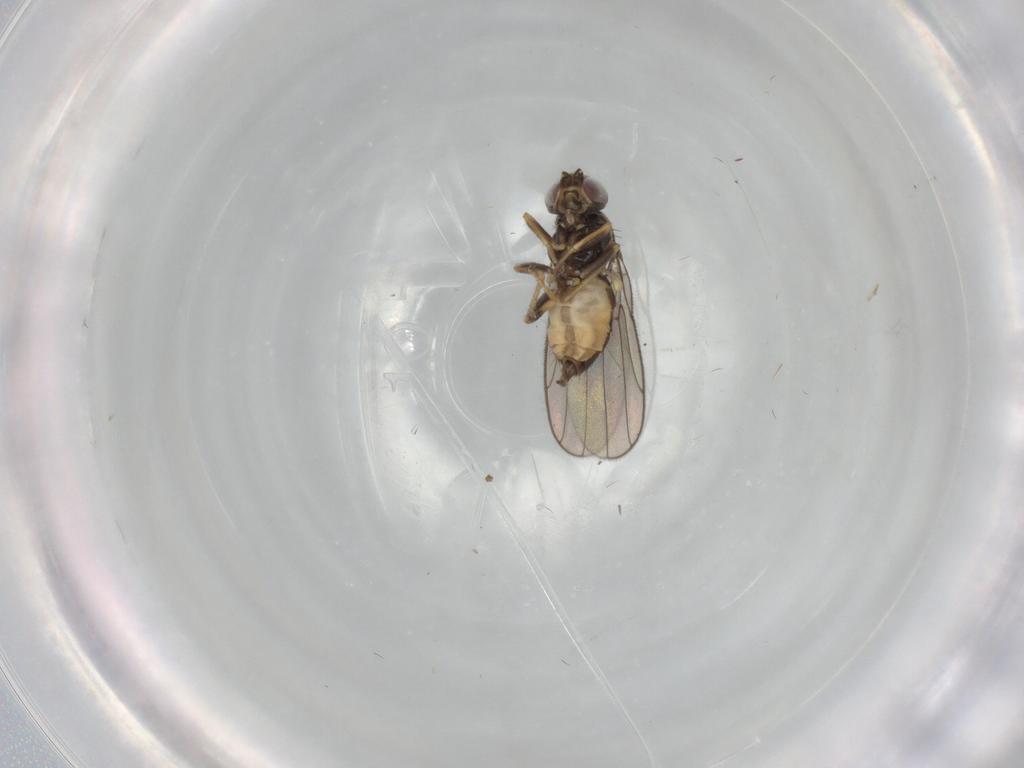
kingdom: Animalia
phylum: Arthropoda
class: Insecta
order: Diptera
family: Chloropidae
